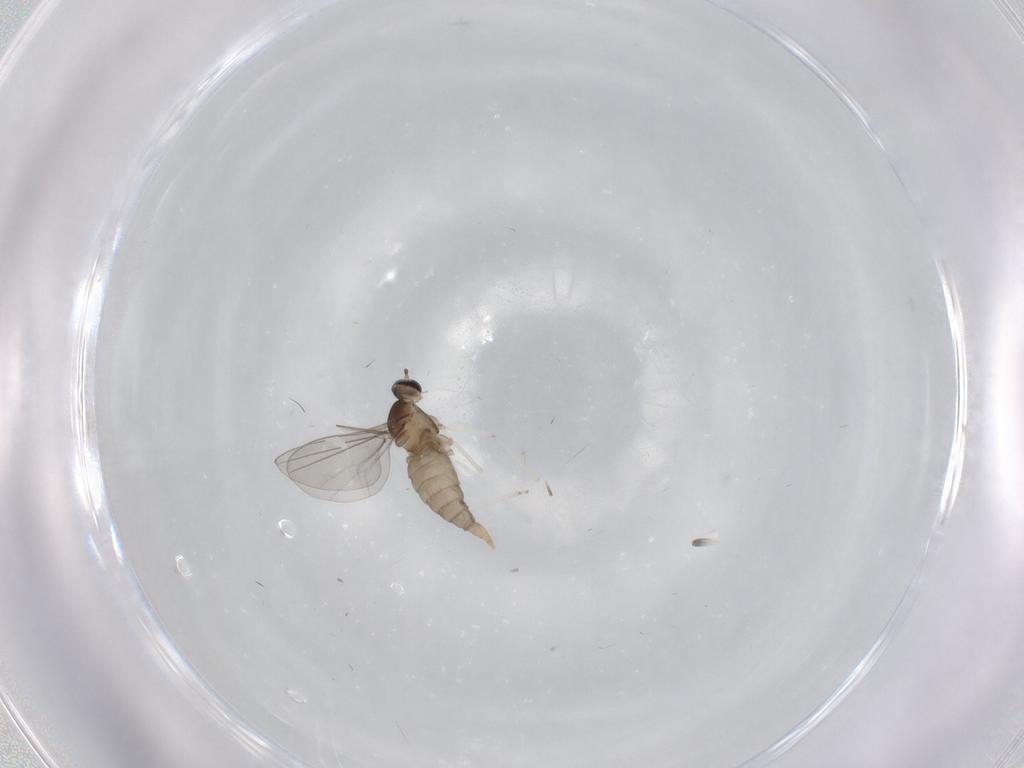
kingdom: Animalia
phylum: Arthropoda
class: Insecta
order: Diptera
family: Cecidomyiidae
